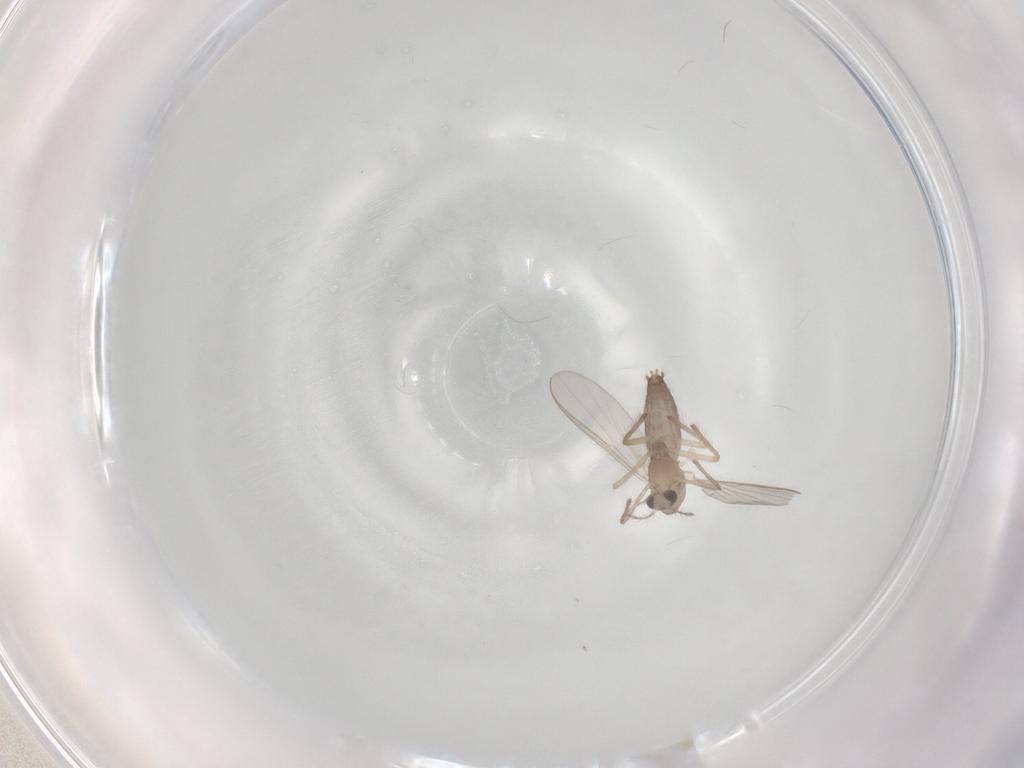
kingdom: Animalia
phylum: Arthropoda
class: Insecta
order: Diptera
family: Chironomidae
